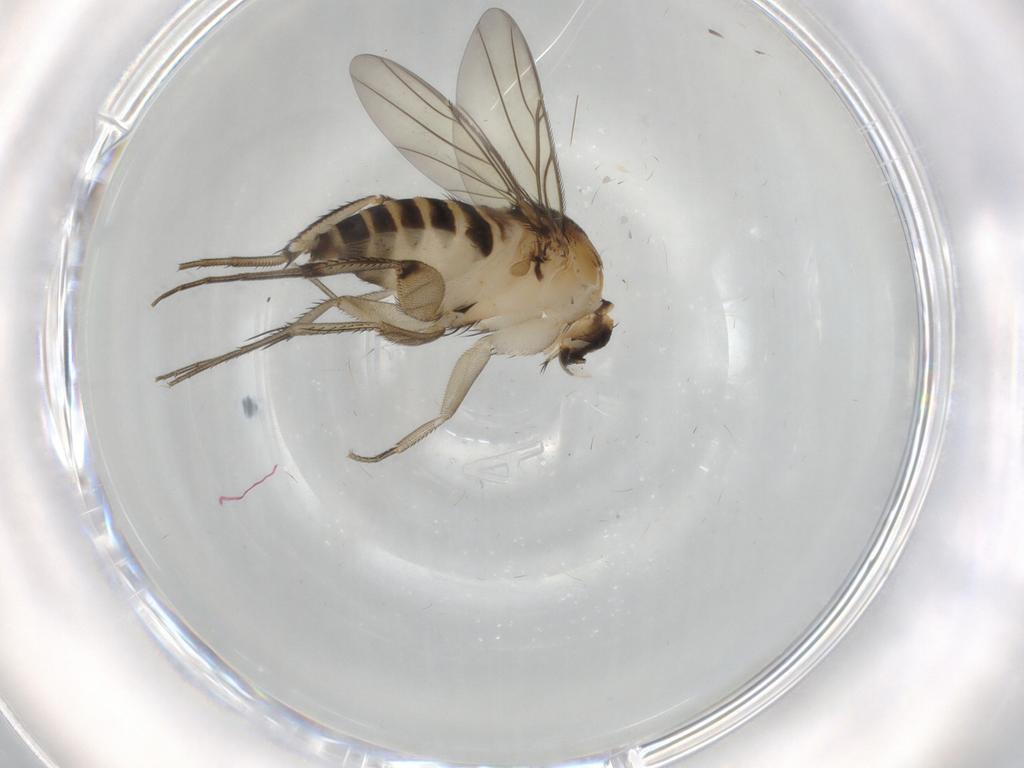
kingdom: Animalia
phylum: Arthropoda
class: Insecta
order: Diptera
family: Phoridae
